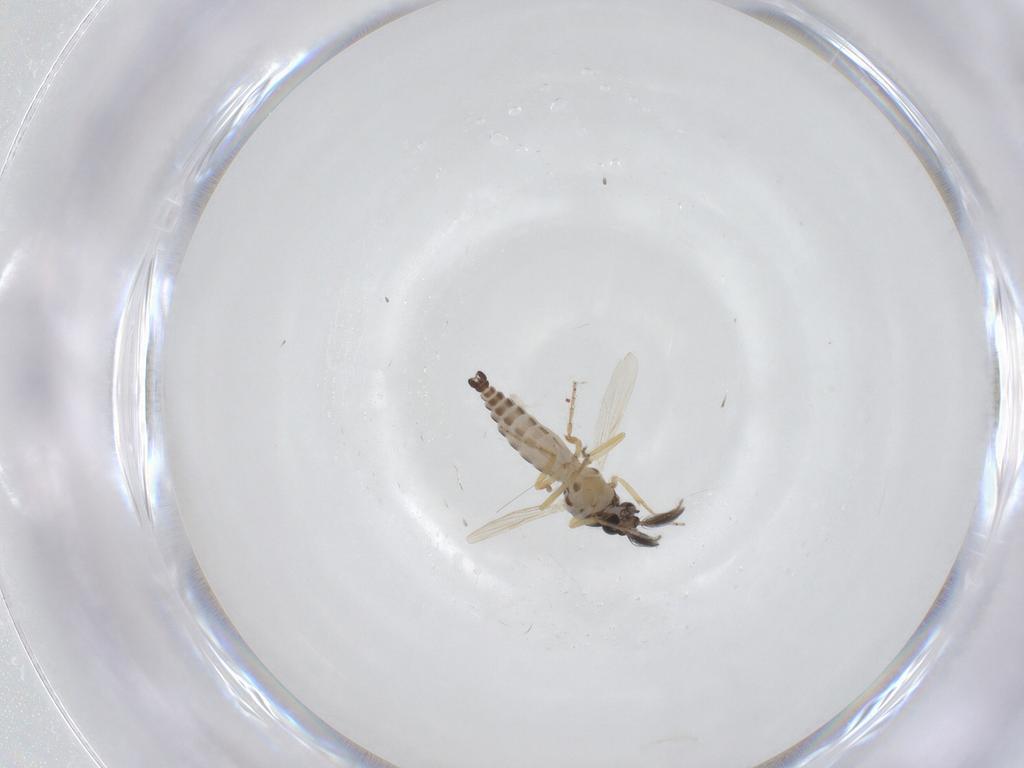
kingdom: Animalia
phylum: Arthropoda
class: Insecta
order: Diptera
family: Ceratopogonidae
